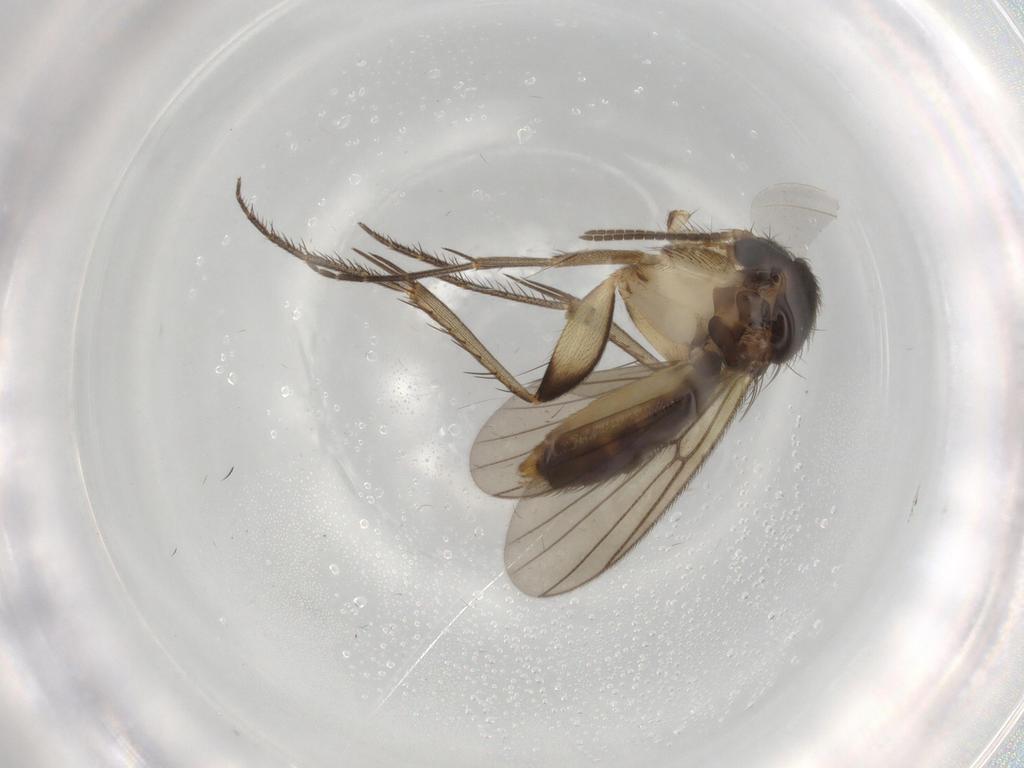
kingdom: Animalia
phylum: Arthropoda
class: Insecta
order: Diptera
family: Mycetophilidae
